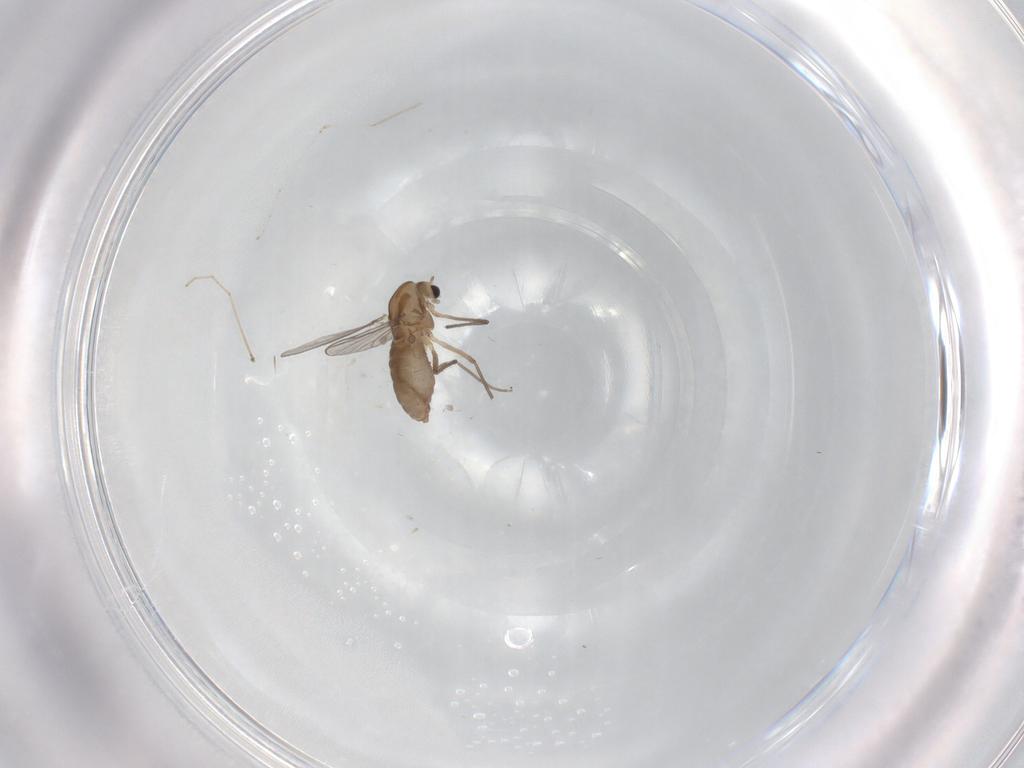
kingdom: Animalia
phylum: Arthropoda
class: Insecta
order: Diptera
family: Chironomidae
